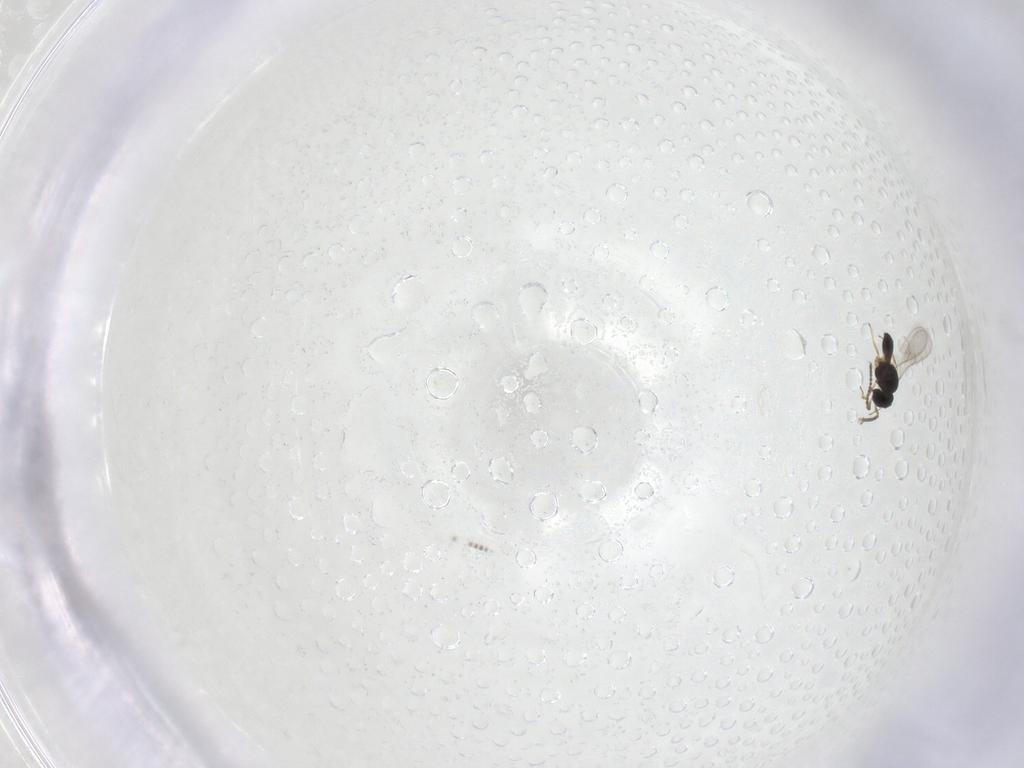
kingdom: Animalia
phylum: Arthropoda
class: Insecta
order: Hymenoptera
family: Scelionidae
